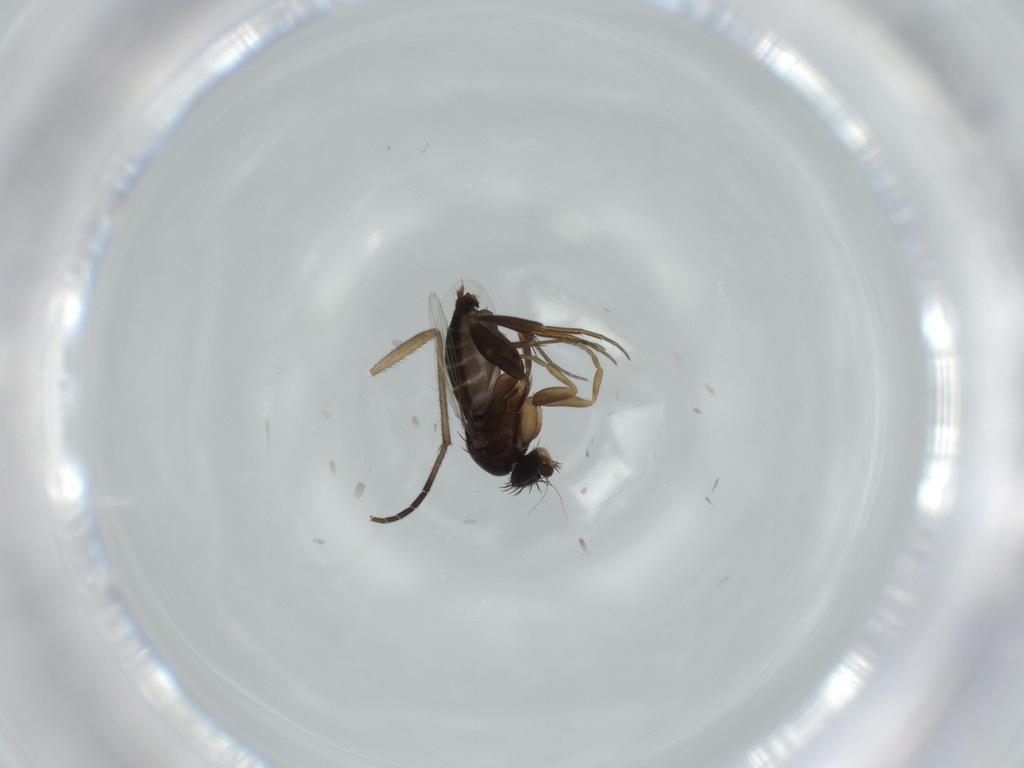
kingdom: Animalia
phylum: Arthropoda
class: Insecta
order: Diptera
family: Phoridae
